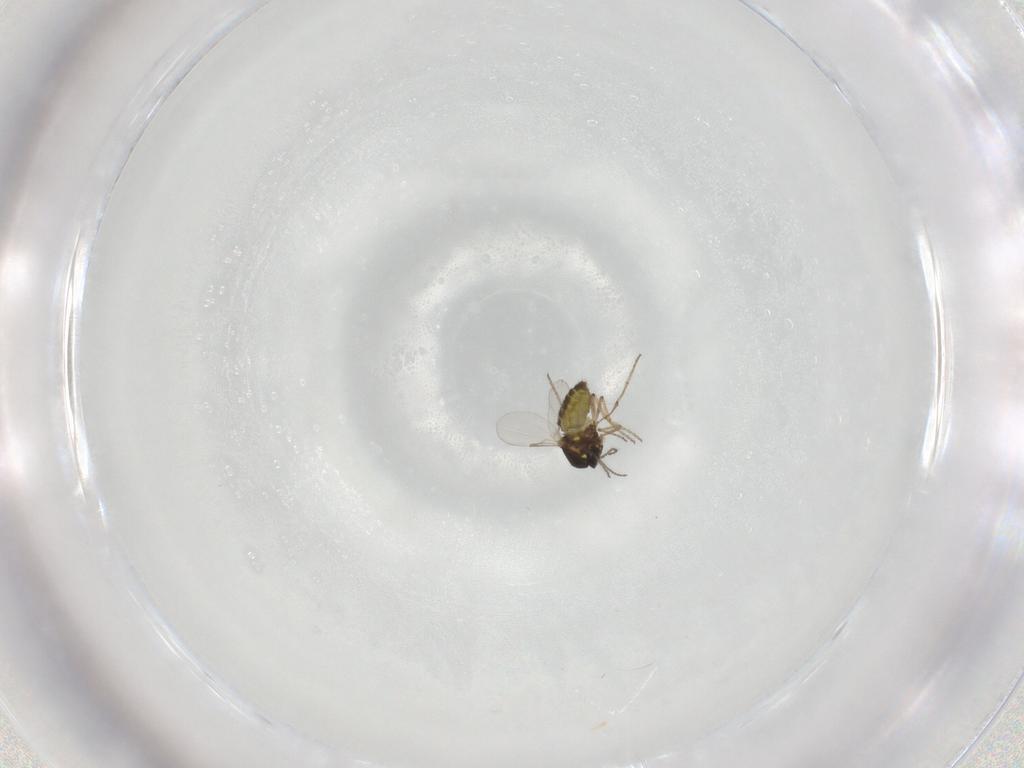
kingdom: Animalia
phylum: Arthropoda
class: Insecta
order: Diptera
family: Ceratopogonidae
